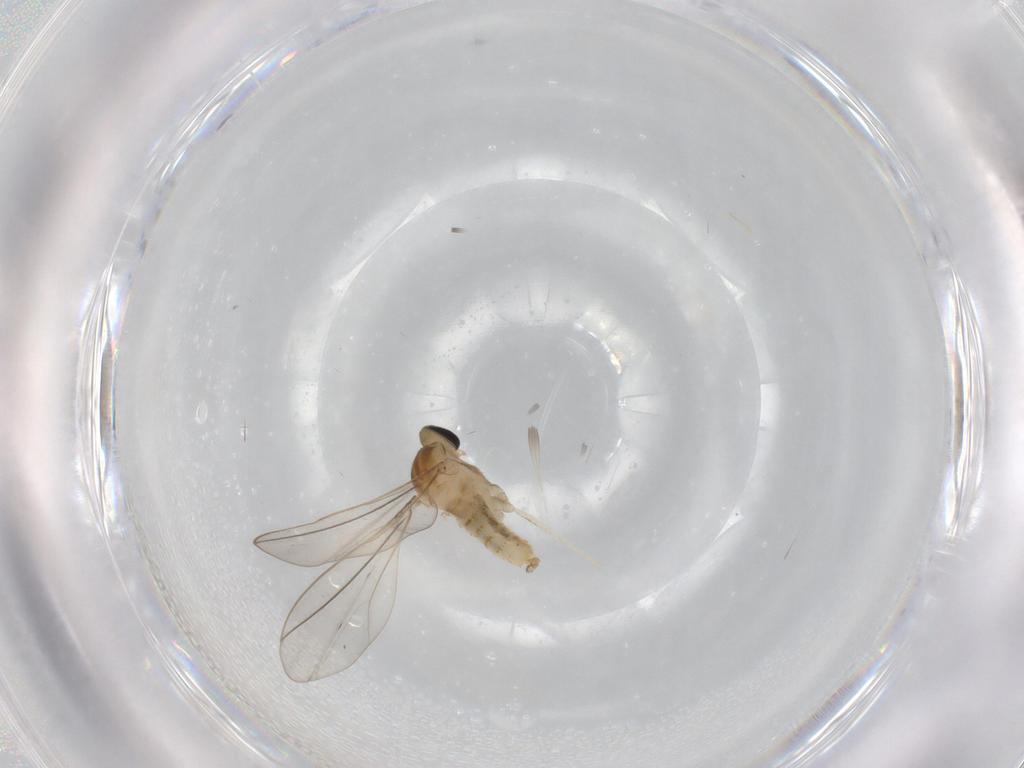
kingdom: Animalia
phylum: Arthropoda
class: Insecta
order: Diptera
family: Cecidomyiidae
